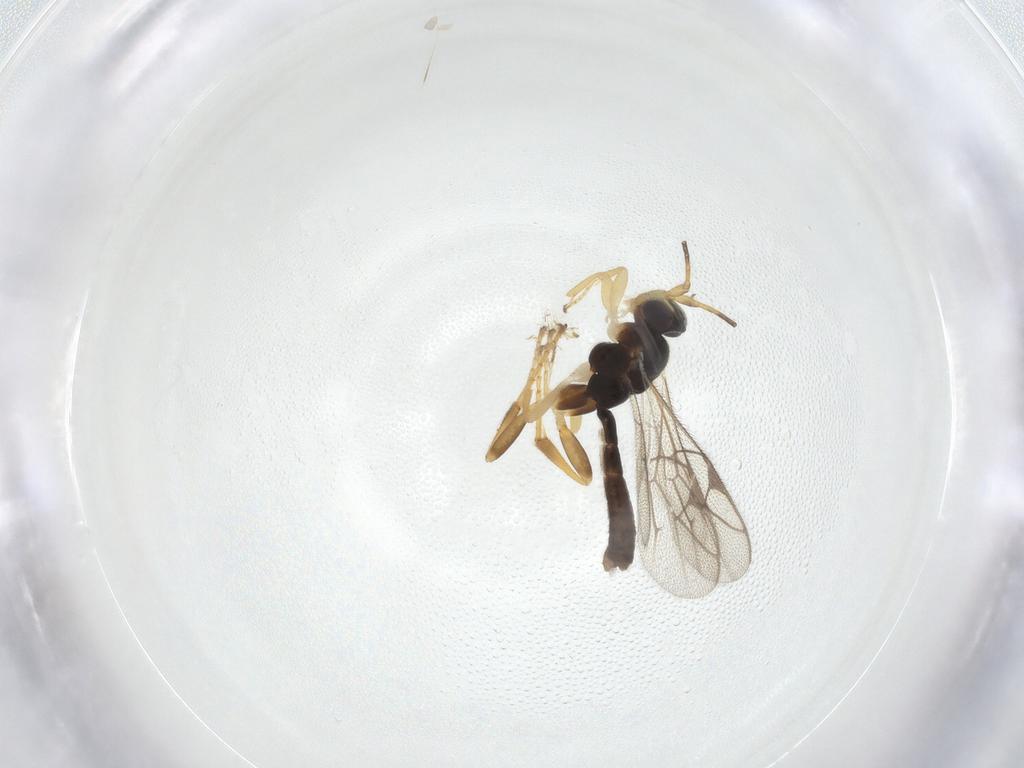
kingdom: Animalia
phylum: Arthropoda
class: Insecta
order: Hymenoptera
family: Ichneumonidae
